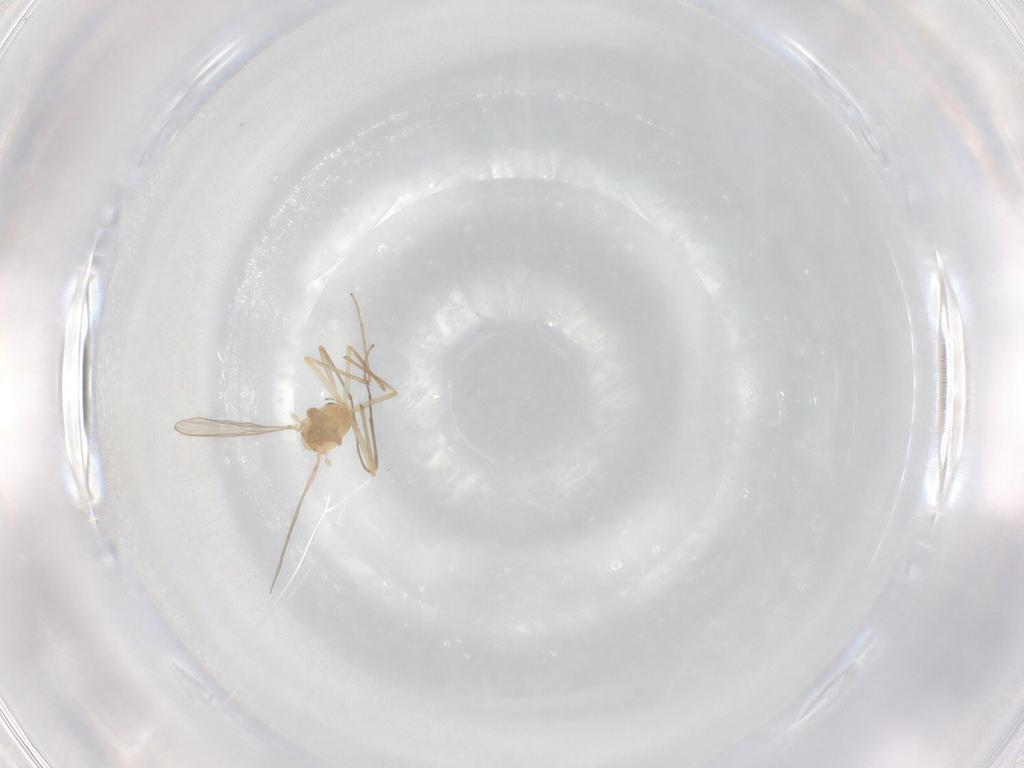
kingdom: Animalia
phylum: Arthropoda
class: Insecta
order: Diptera
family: Chironomidae
